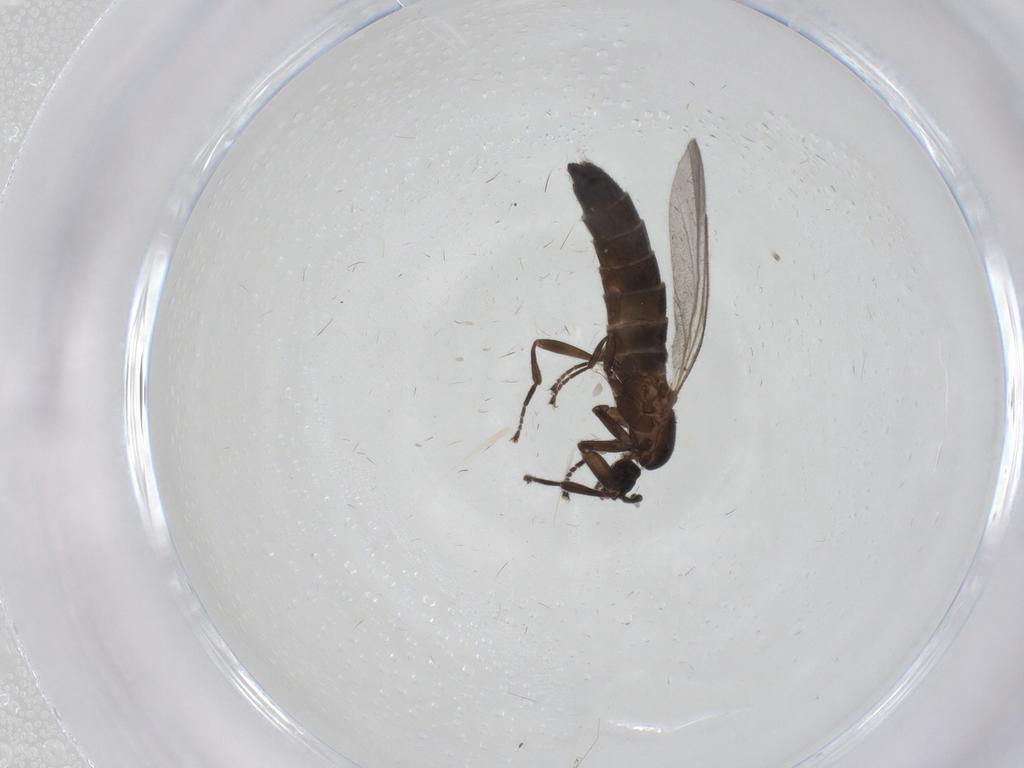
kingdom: Animalia
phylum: Arthropoda
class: Insecta
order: Diptera
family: Scatopsidae
